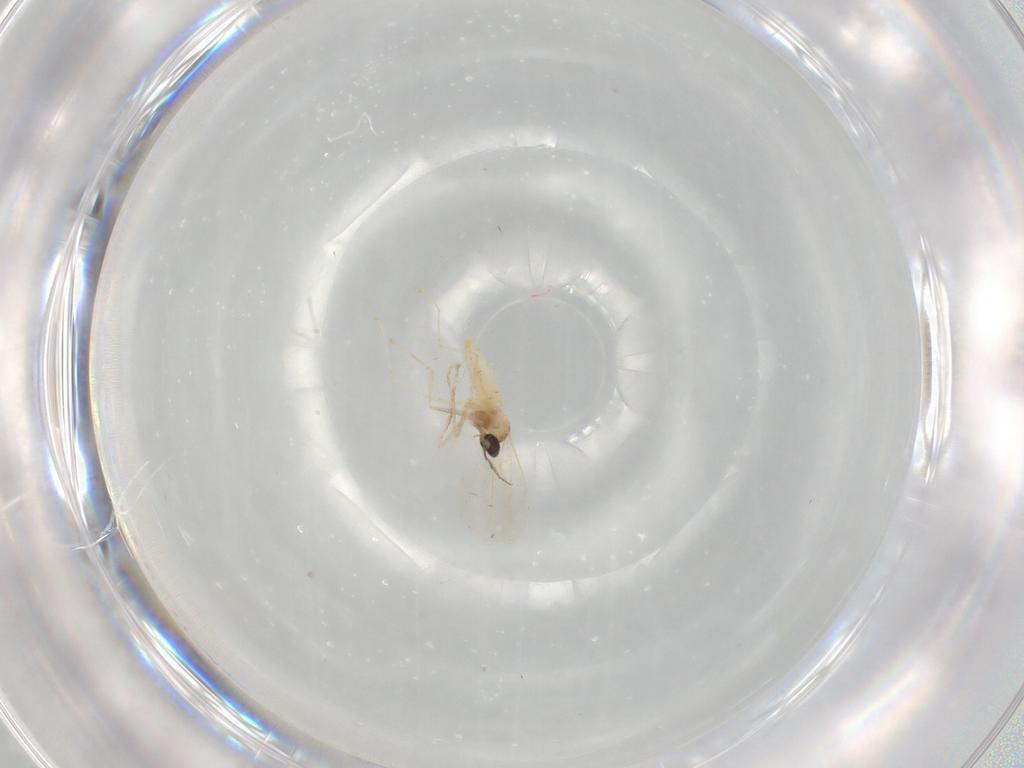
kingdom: Animalia
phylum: Arthropoda
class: Insecta
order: Diptera
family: Cecidomyiidae
